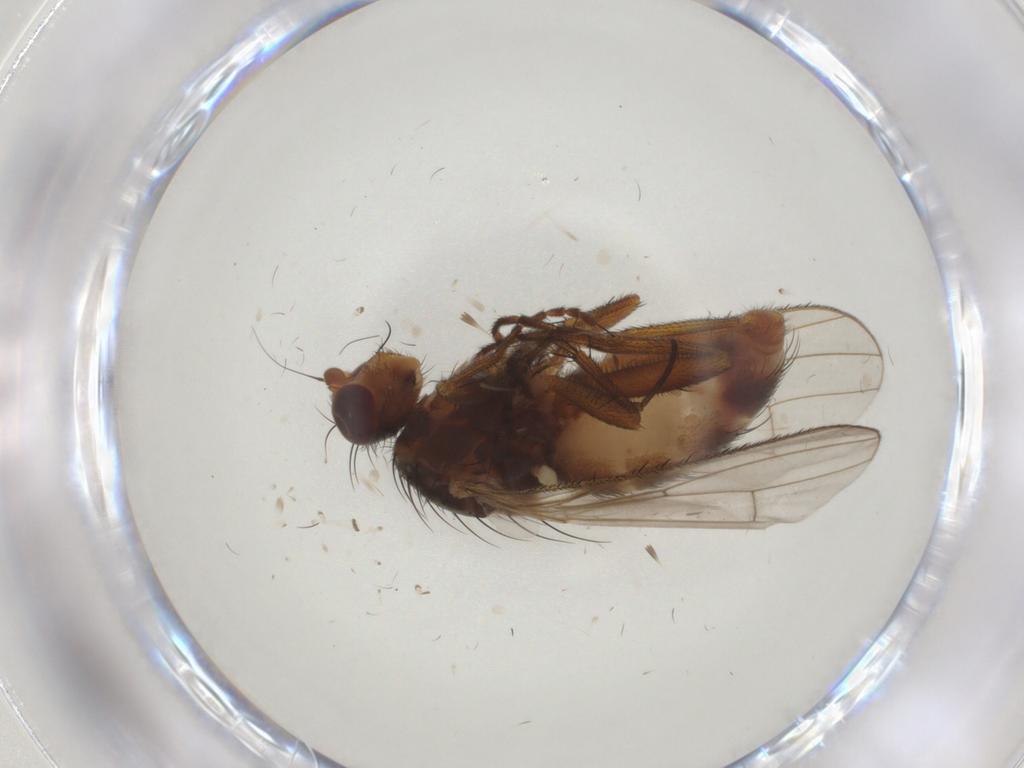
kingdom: Animalia
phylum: Arthropoda
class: Insecta
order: Diptera
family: Heleomyzidae
